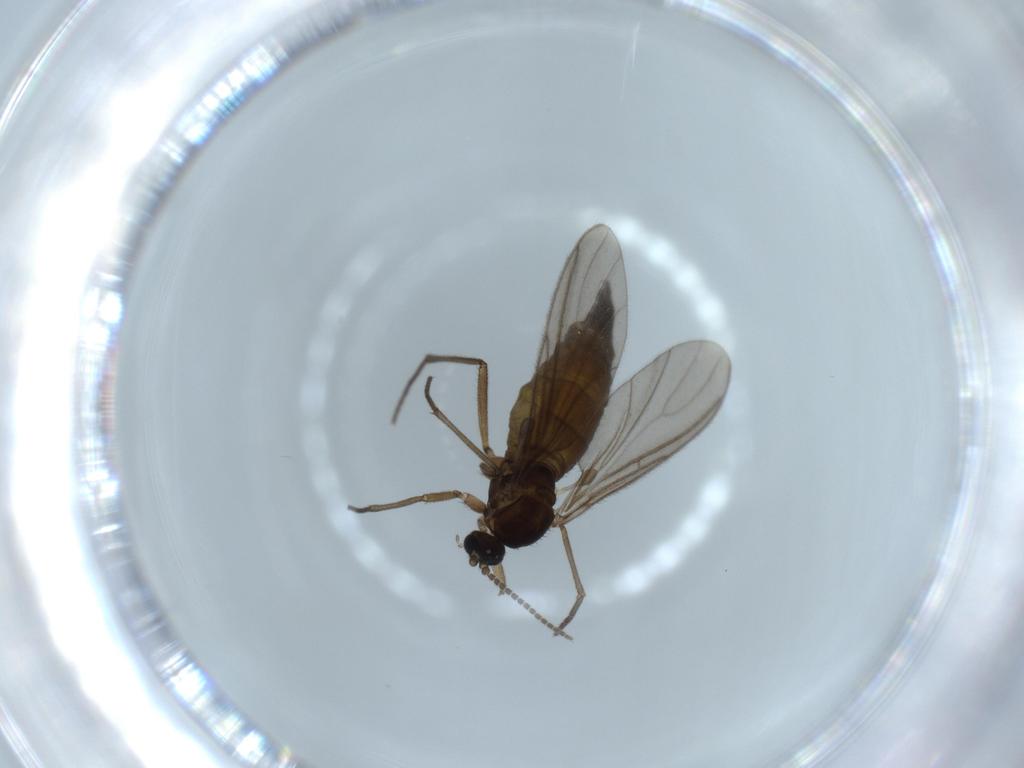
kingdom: Animalia
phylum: Arthropoda
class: Insecta
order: Diptera
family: Sciaridae
